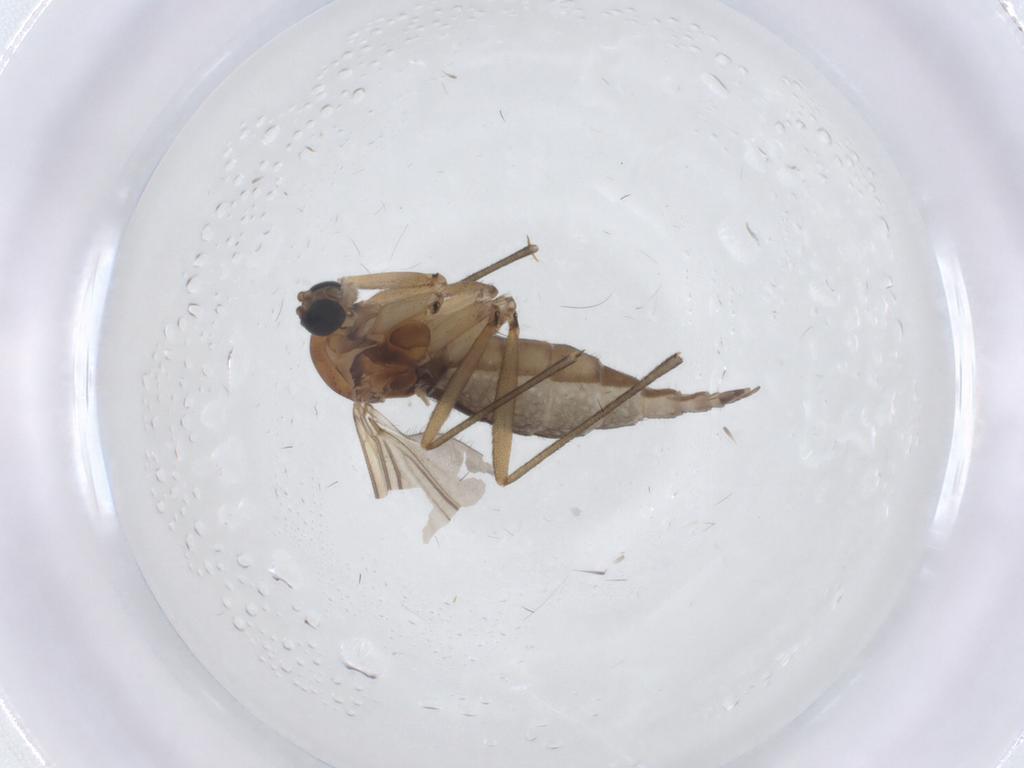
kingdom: Animalia
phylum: Arthropoda
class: Insecta
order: Diptera
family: Sciaridae
